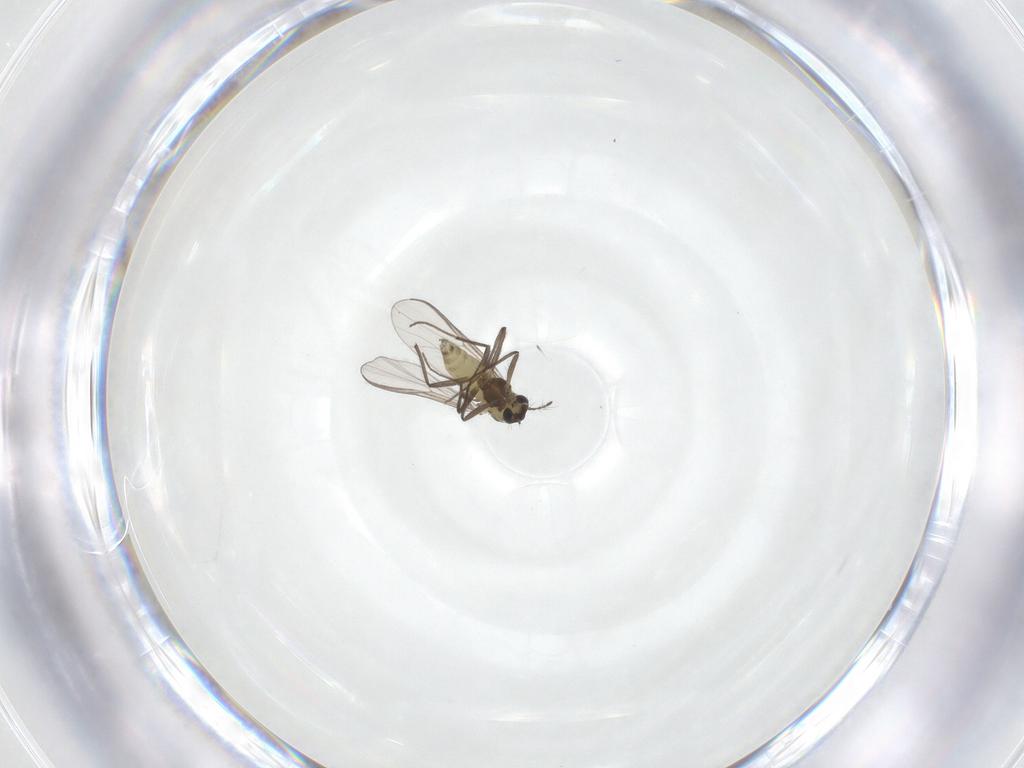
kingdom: Animalia
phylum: Arthropoda
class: Insecta
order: Diptera
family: Chironomidae
